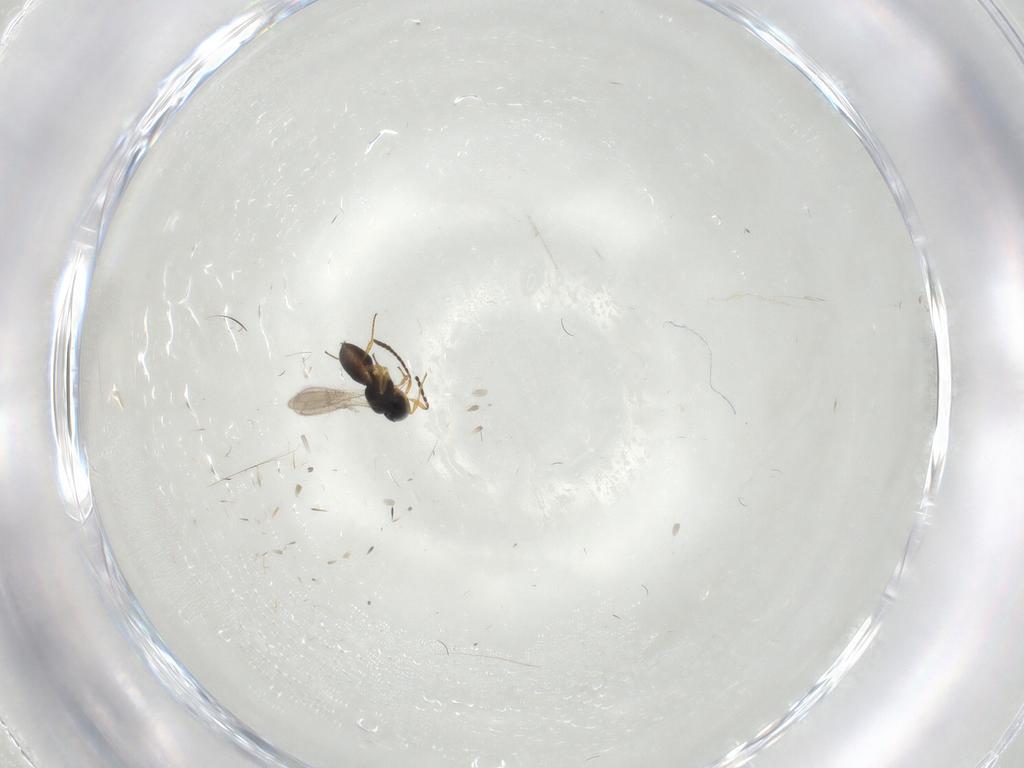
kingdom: Animalia
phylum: Arthropoda
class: Insecta
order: Hymenoptera
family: Scelionidae
